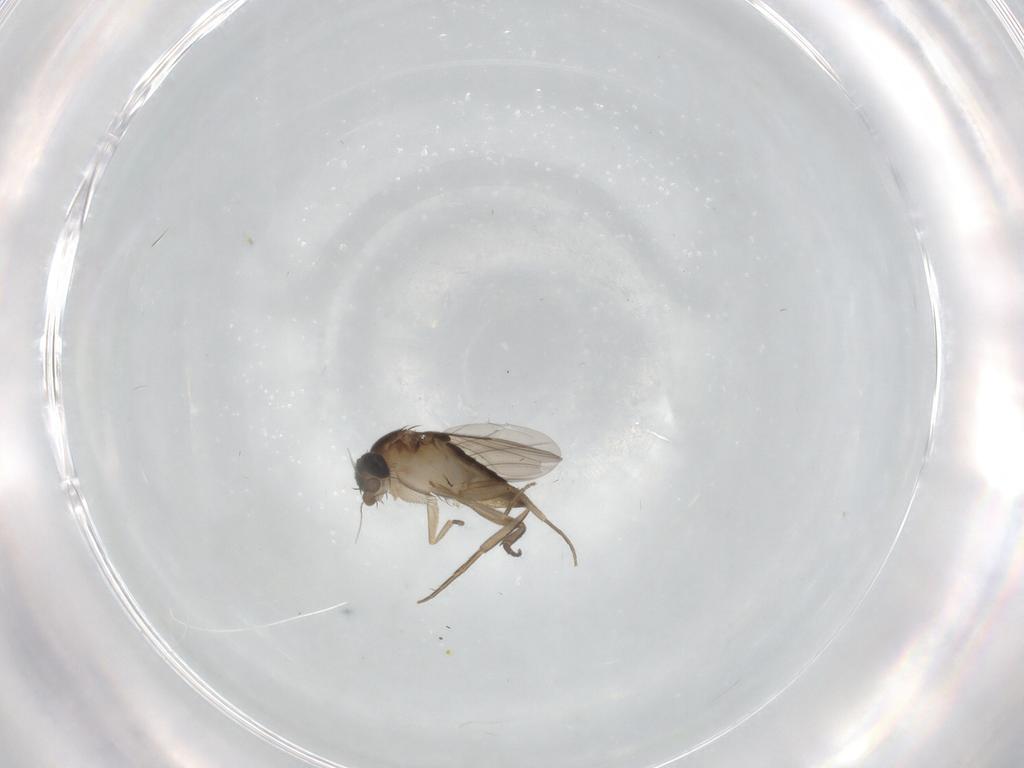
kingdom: Animalia
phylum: Arthropoda
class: Insecta
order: Diptera
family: Phoridae
